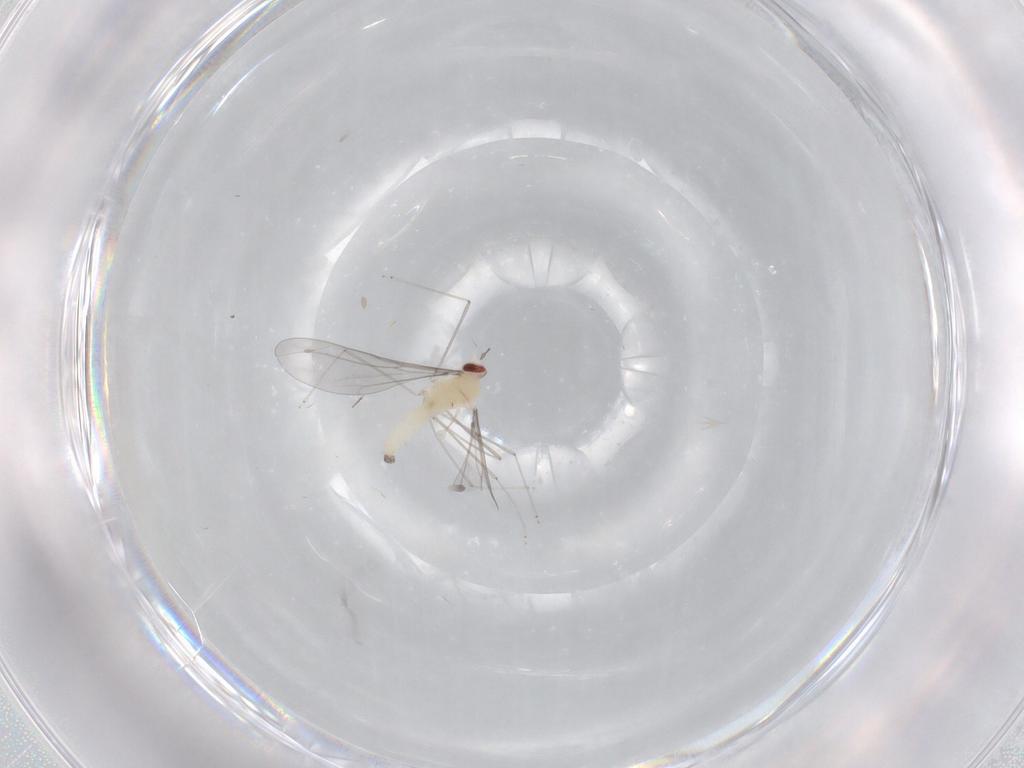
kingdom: Animalia
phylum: Arthropoda
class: Insecta
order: Diptera
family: Cecidomyiidae
